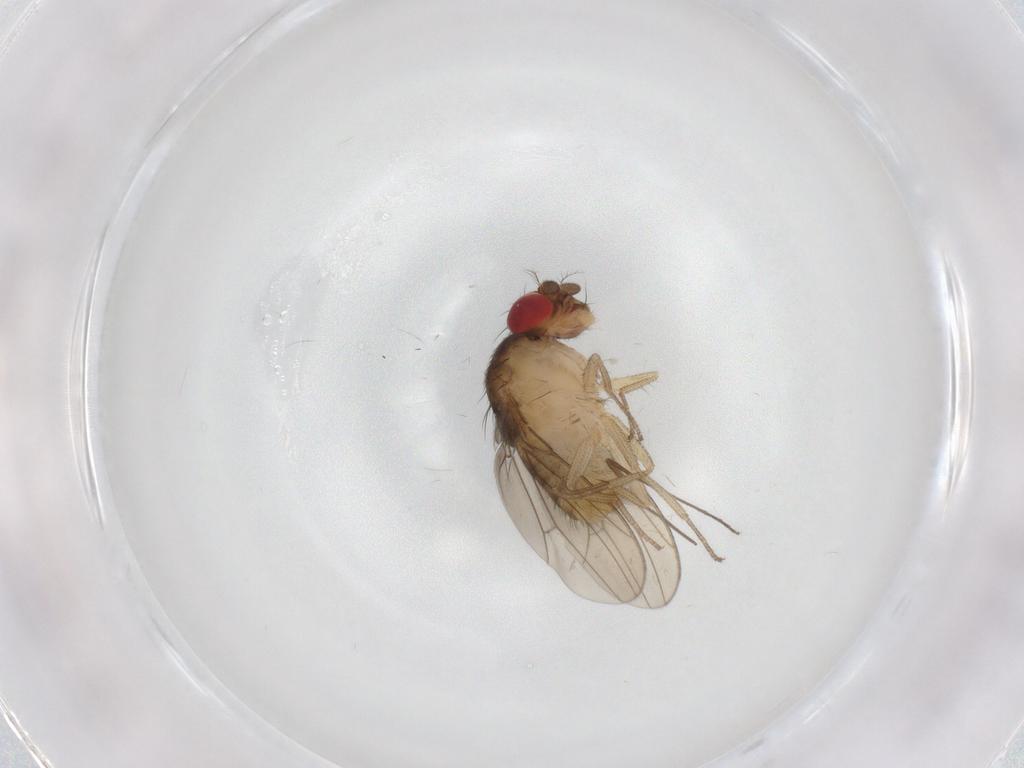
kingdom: Animalia
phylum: Arthropoda
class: Insecta
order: Diptera
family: Drosophilidae
